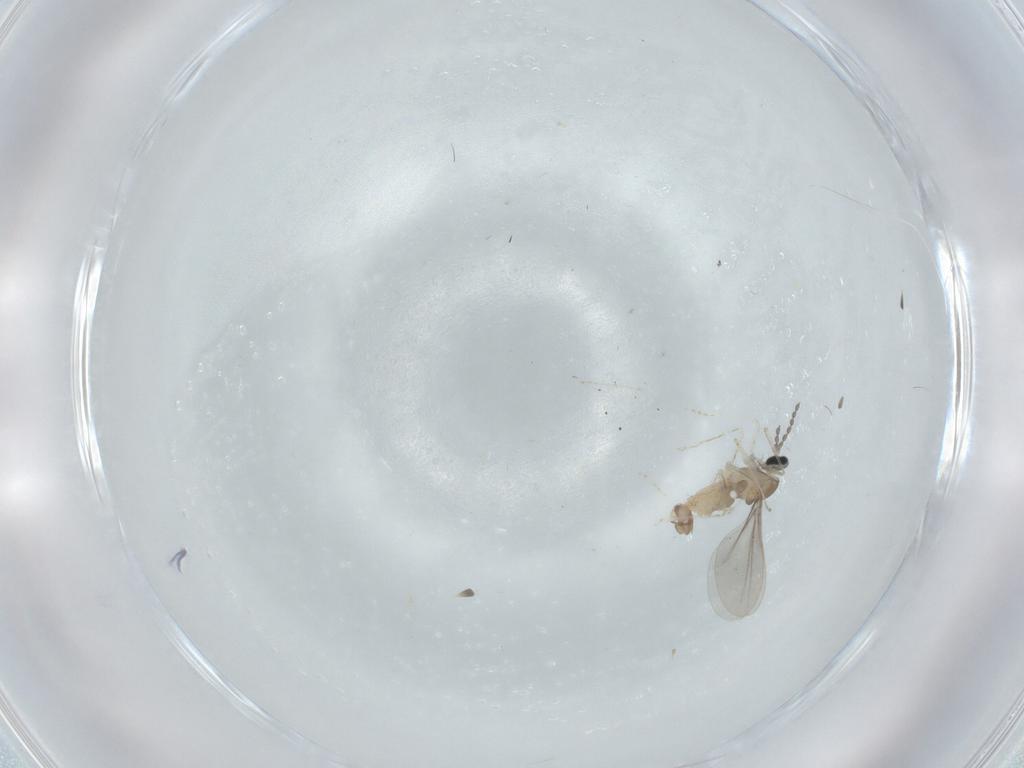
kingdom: Animalia
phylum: Arthropoda
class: Insecta
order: Diptera
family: Cecidomyiidae
